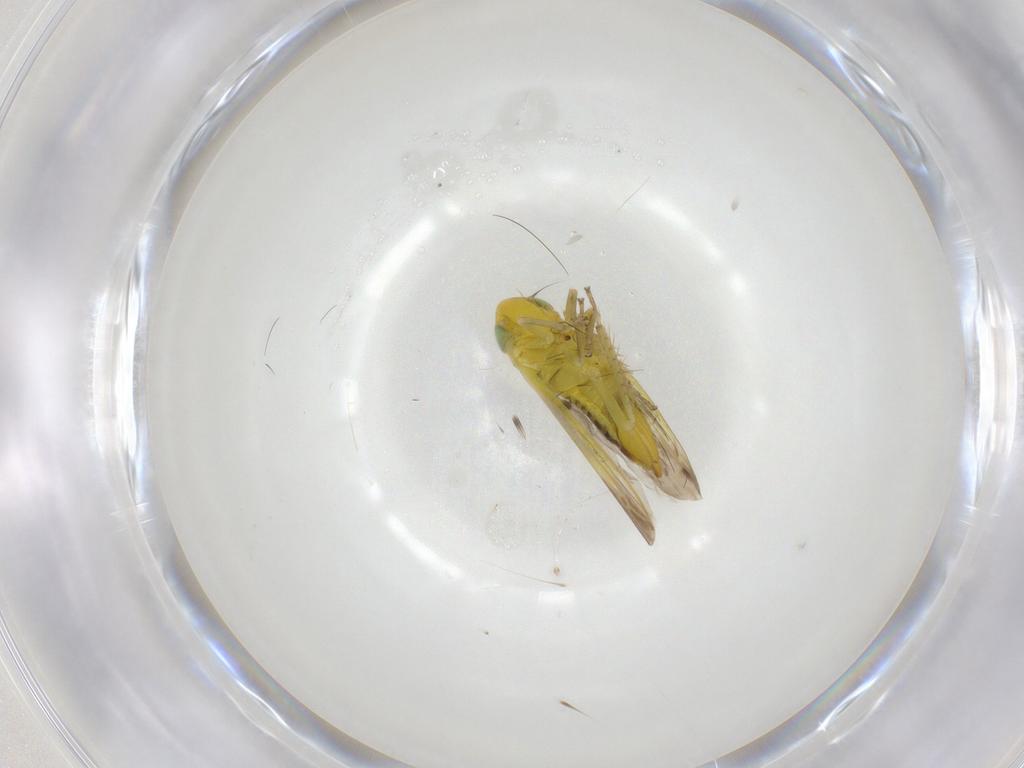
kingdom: Animalia
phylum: Arthropoda
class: Insecta
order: Hemiptera
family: Cicadellidae
